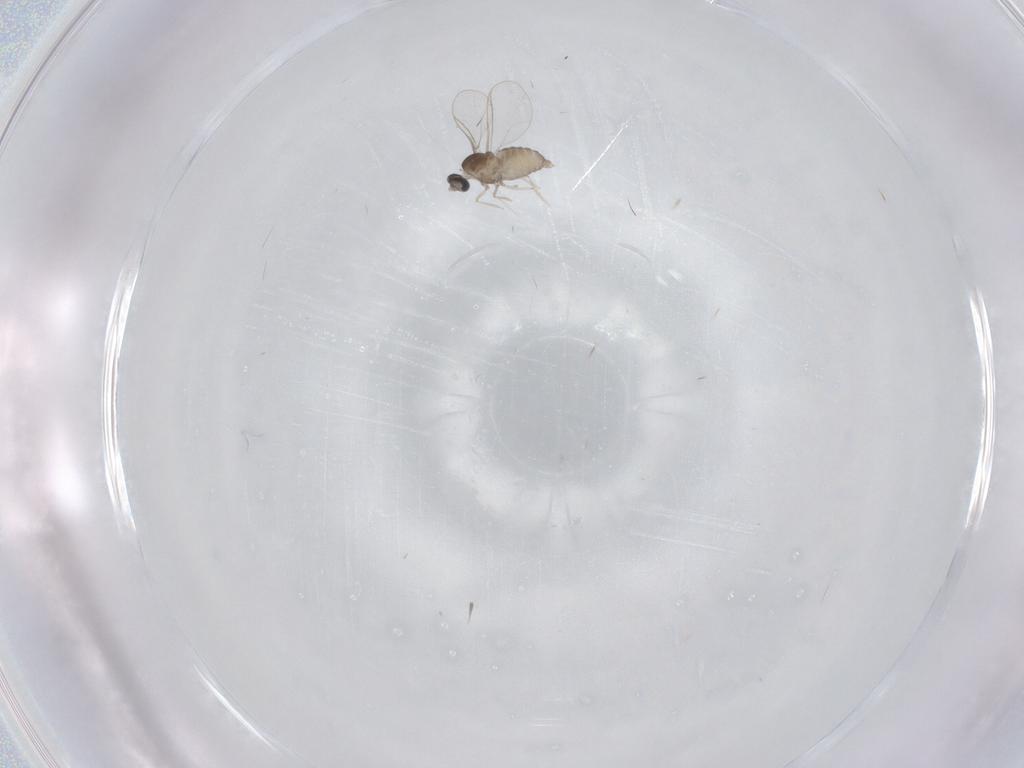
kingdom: Animalia
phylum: Arthropoda
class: Insecta
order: Diptera
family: Cecidomyiidae
